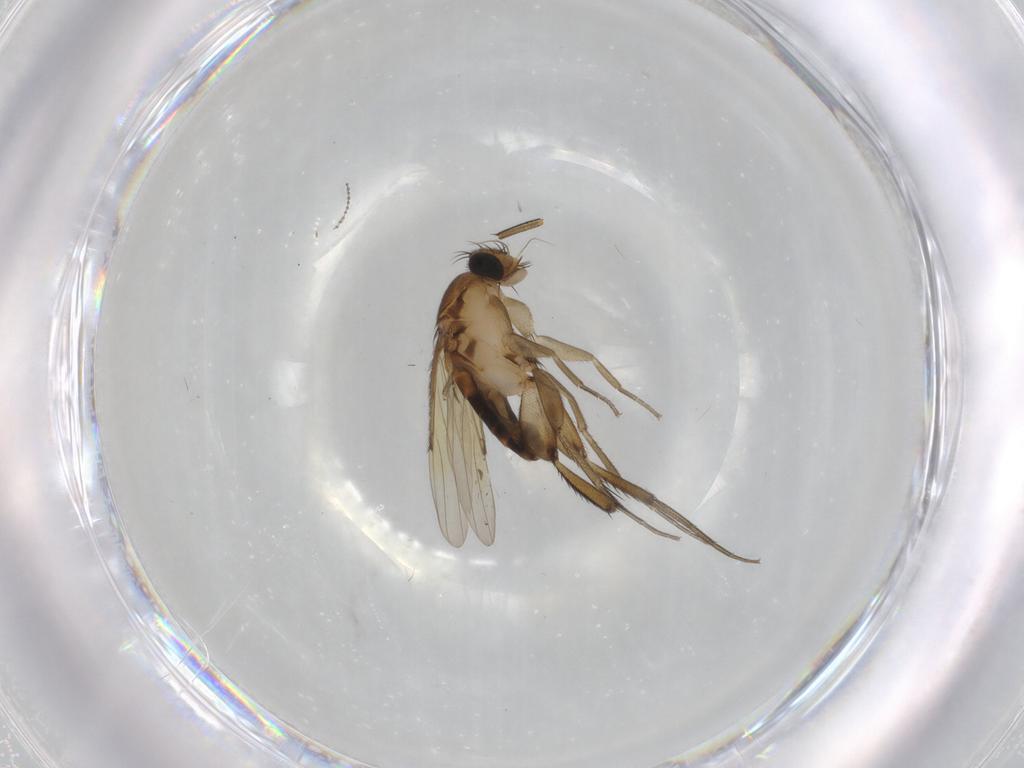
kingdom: Animalia
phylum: Arthropoda
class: Insecta
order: Diptera
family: Phoridae
